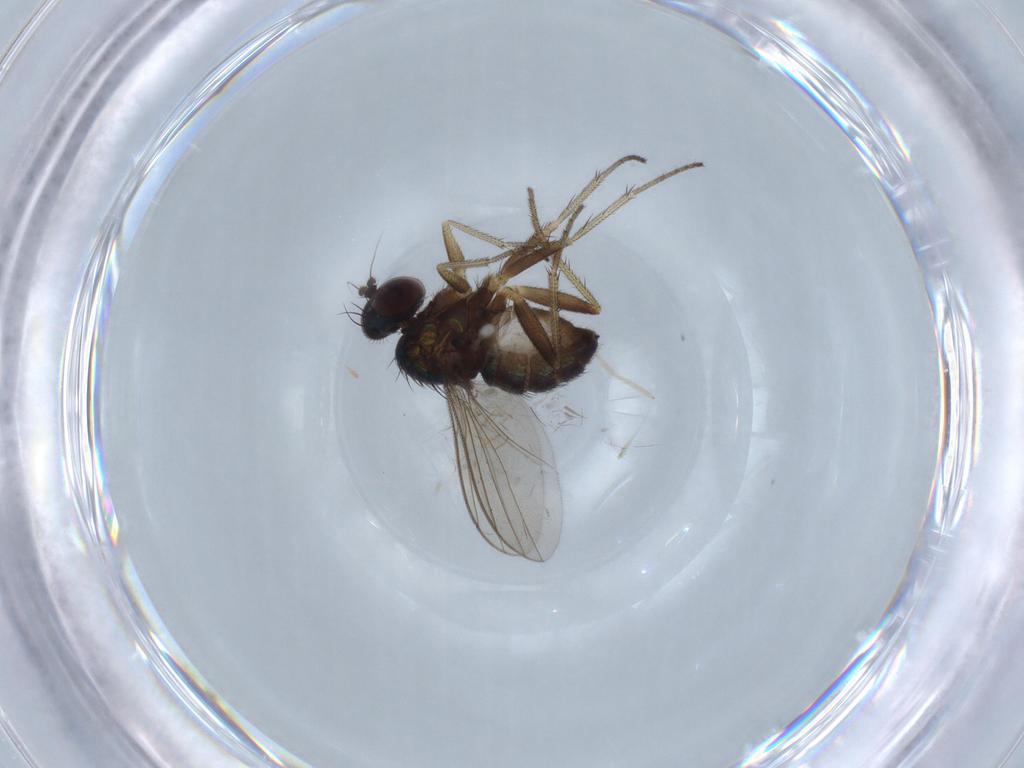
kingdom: Animalia
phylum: Arthropoda
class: Insecta
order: Diptera
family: Dolichopodidae
